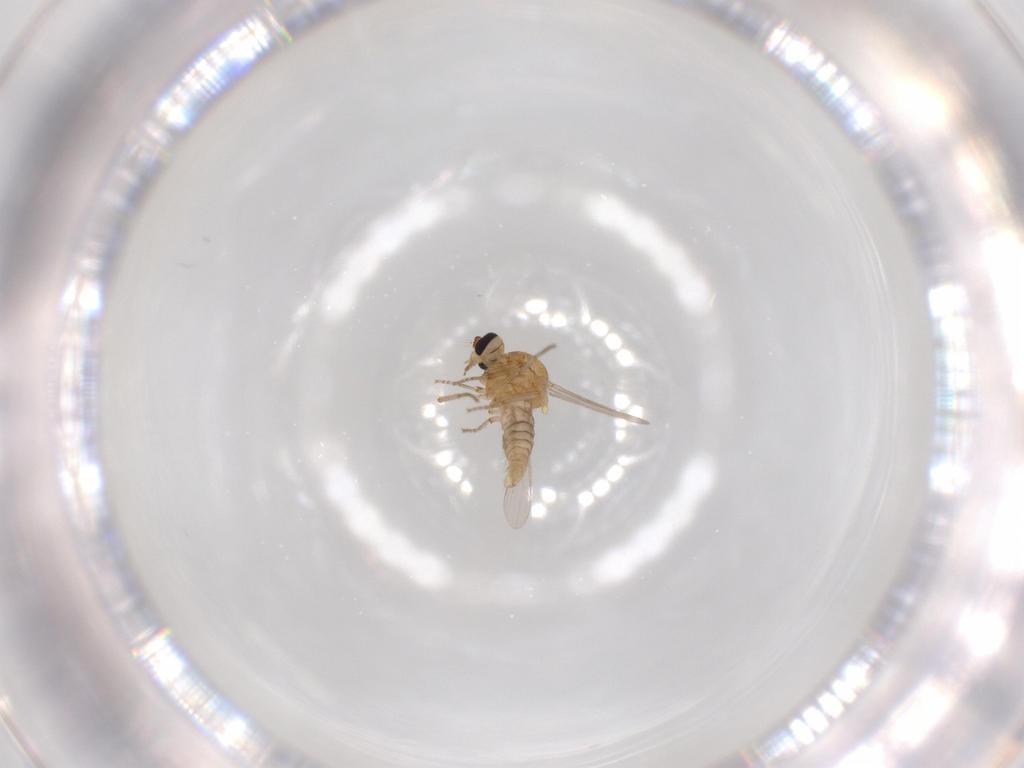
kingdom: Animalia
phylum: Arthropoda
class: Insecta
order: Diptera
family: Ceratopogonidae
